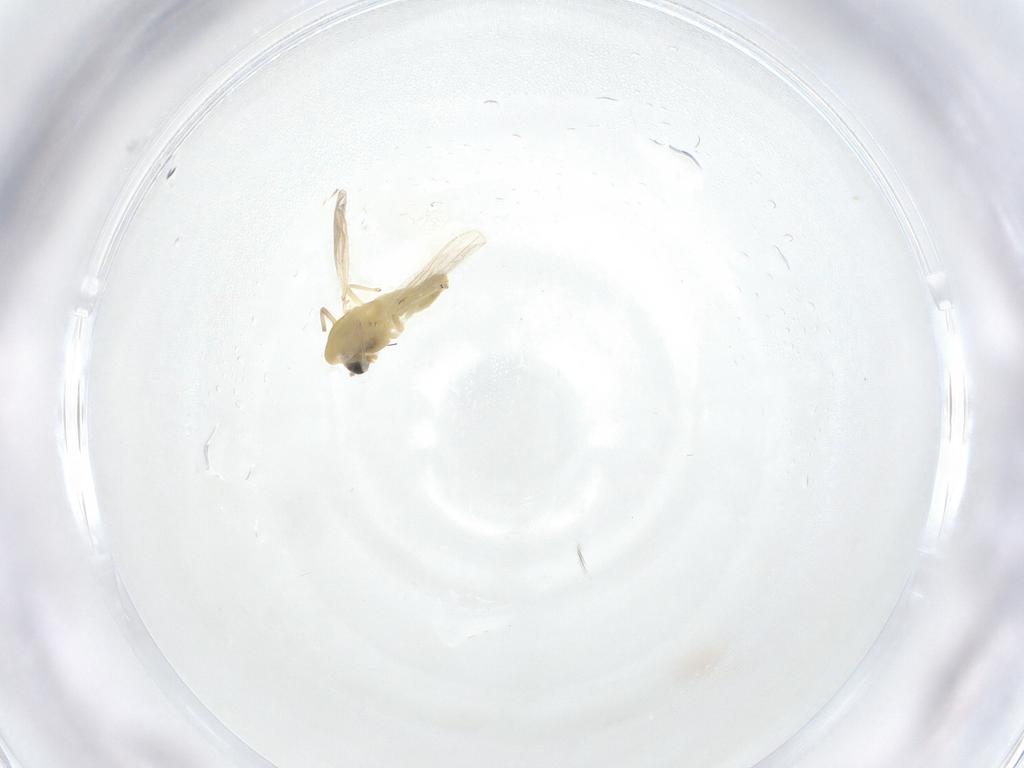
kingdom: Animalia
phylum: Arthropoda
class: Insecta
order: Diptera
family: Chironomidae
